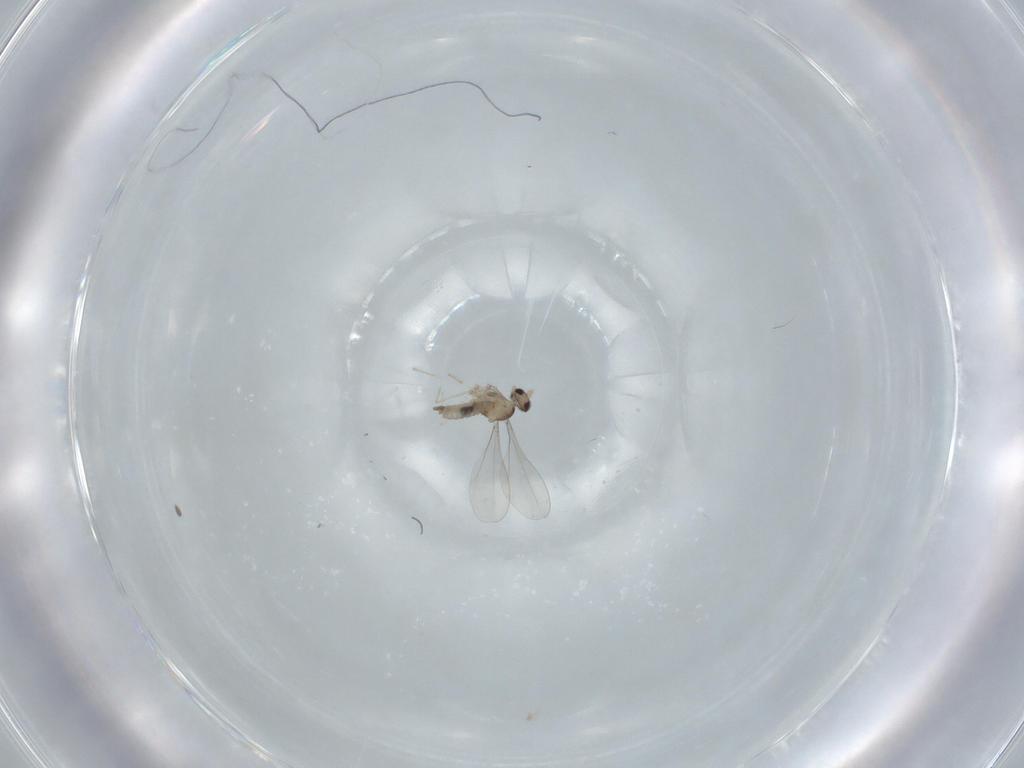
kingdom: Animalia
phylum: Arthropoda
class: Insecta
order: Diptera
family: Cecidomyiidae
